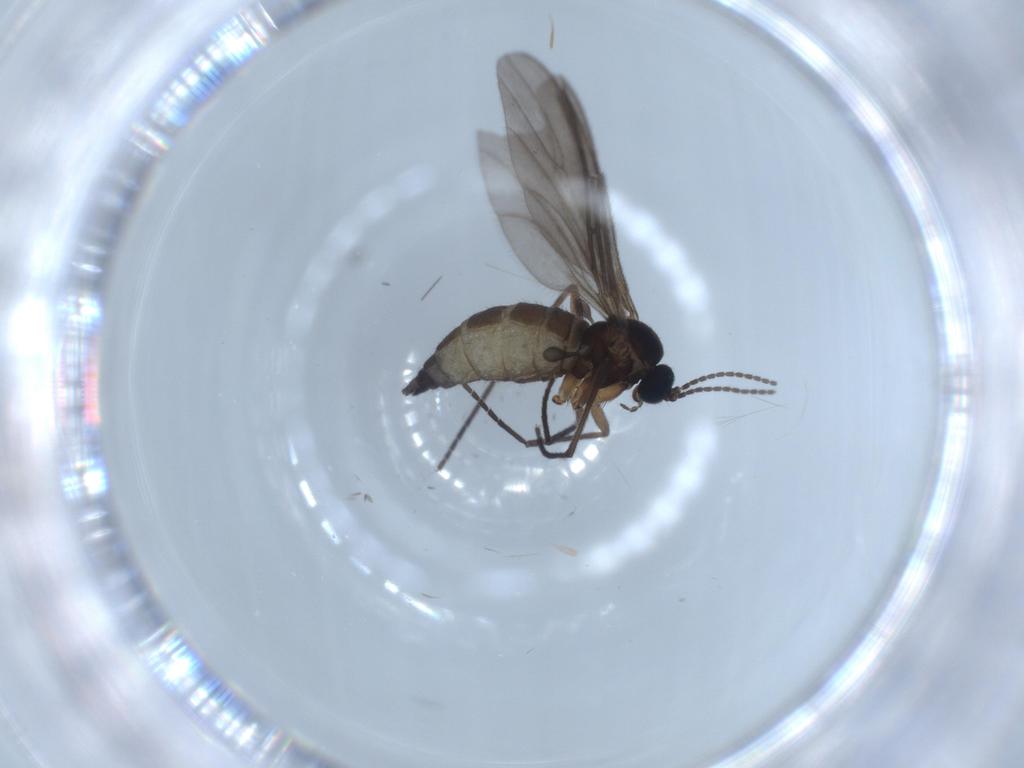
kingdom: Animalia
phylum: Arthropoda
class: Insecta
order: Diptera
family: Sciaridae
